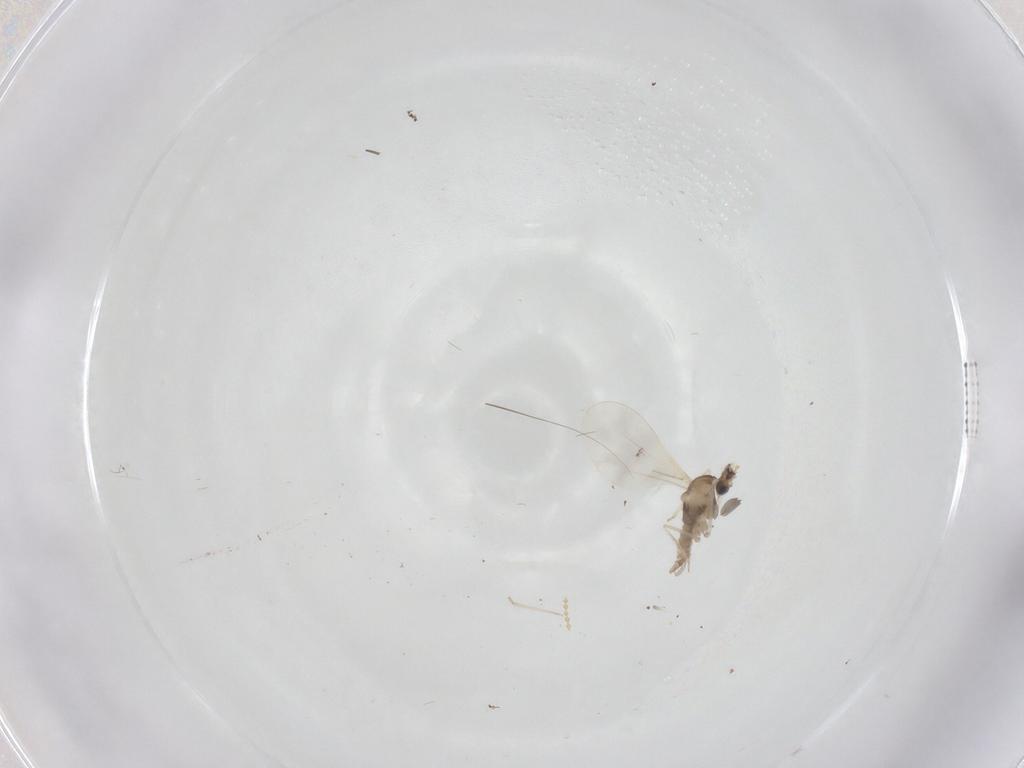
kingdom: Animalia
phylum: Arthropoda
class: Insecta
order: Diptera
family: Cecidomyiidae
